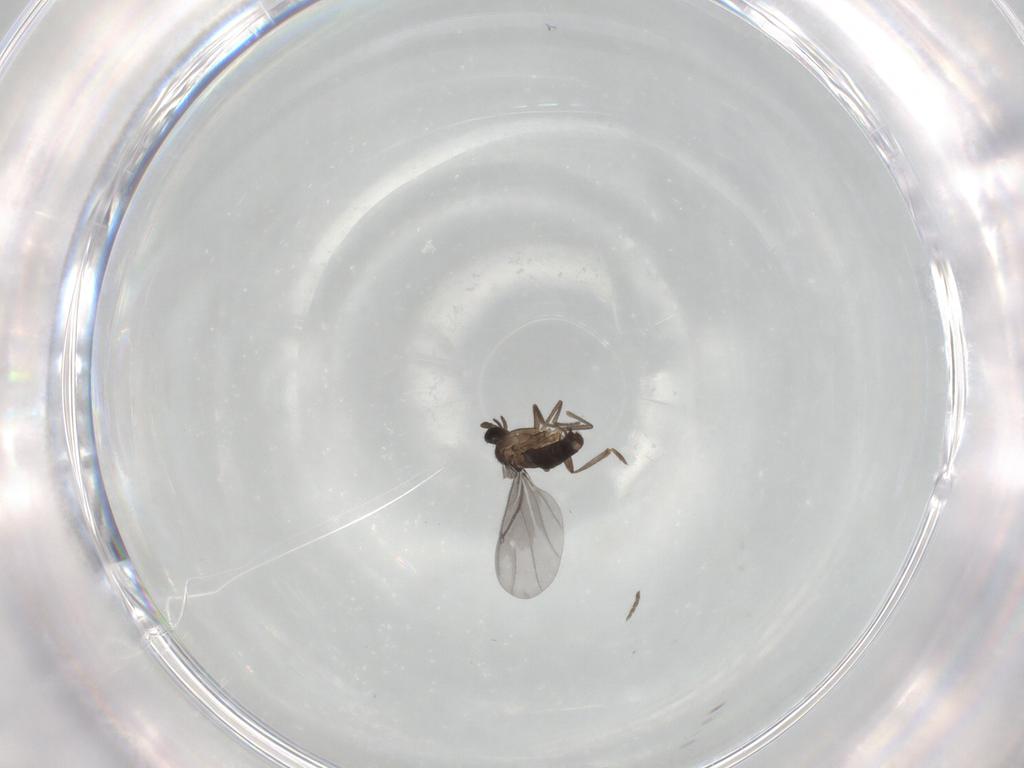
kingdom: Animalia
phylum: Arthropoda
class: Insecta
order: Diptera
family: Phoridae
